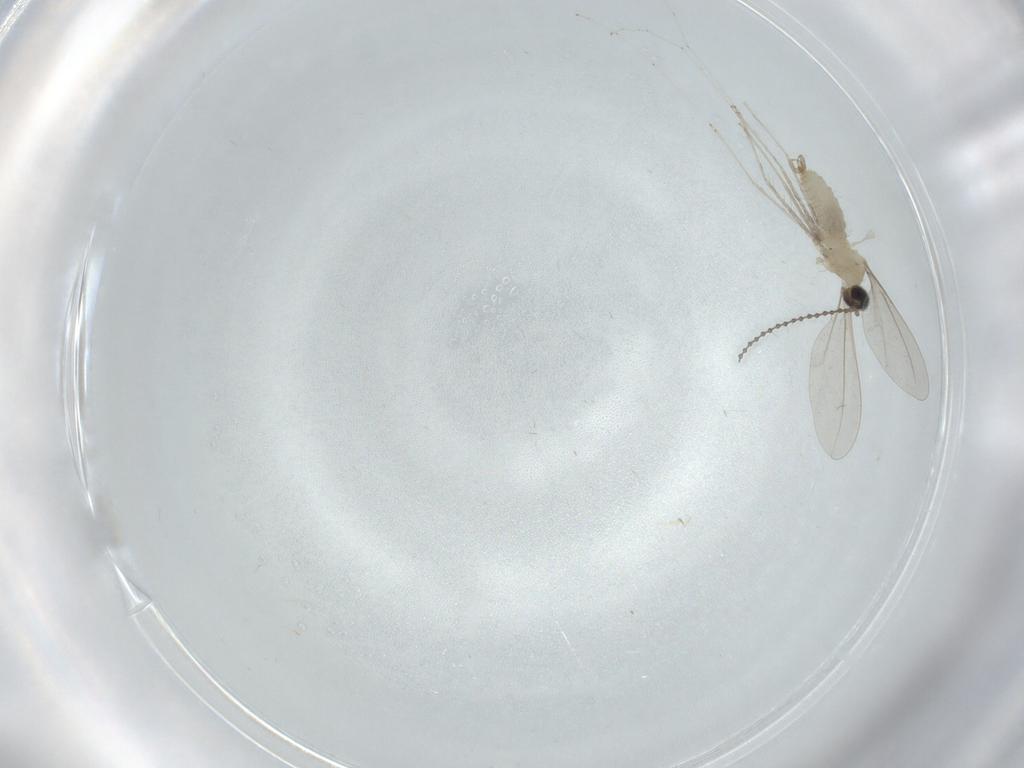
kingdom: Animalia
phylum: Arthropoda
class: Insecta
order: Diptera
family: Cecidomyiidae
